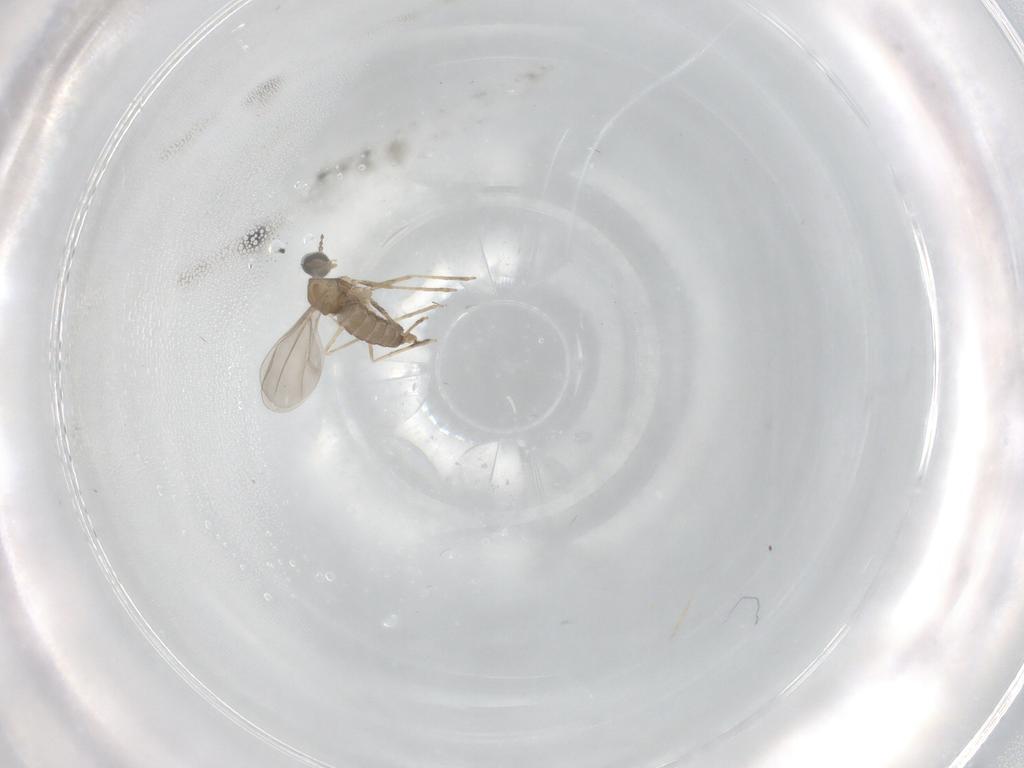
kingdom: Animalia
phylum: Arthropoda
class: Insecta
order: Diptera
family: Cecidomyiidae
